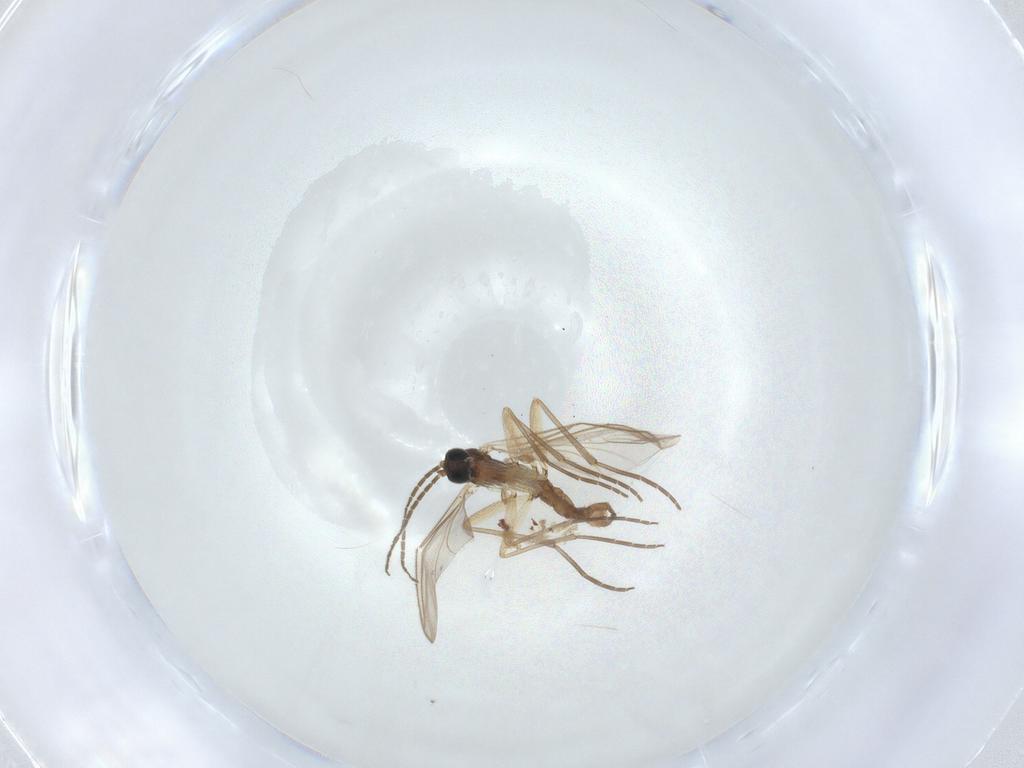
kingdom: Animalia
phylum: Arthropoda
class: Insecta
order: Diptera
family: Sciaridae
